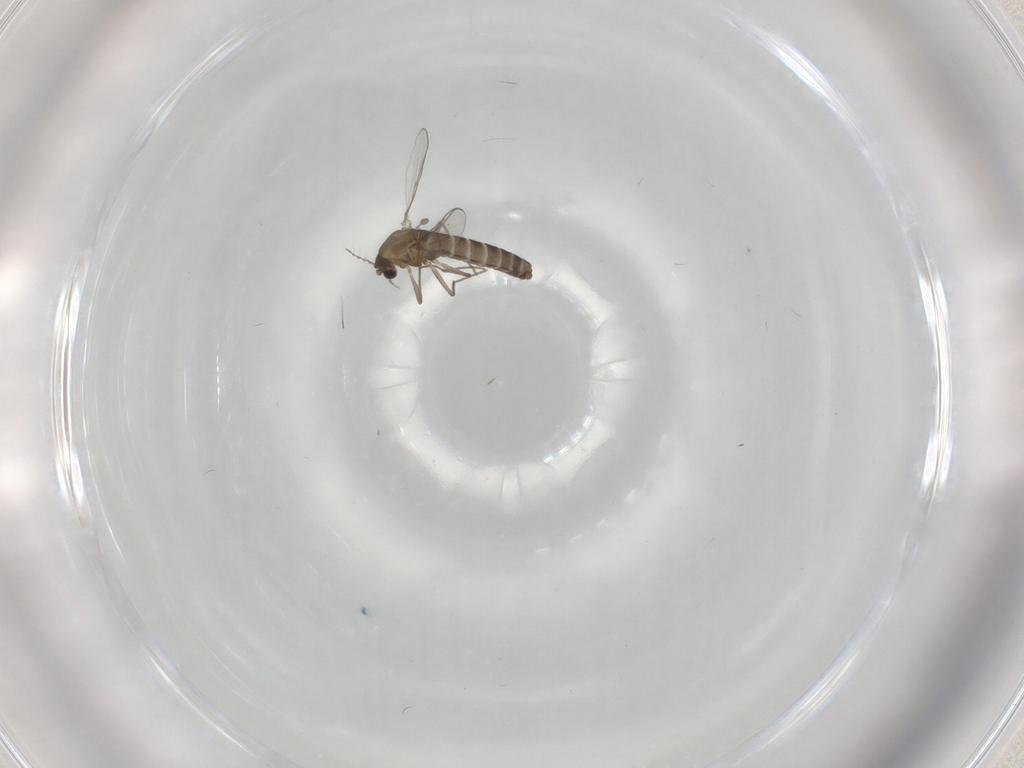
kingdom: Animalia
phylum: Arthropoda
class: Insecta
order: Diptera
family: Chironomidae
